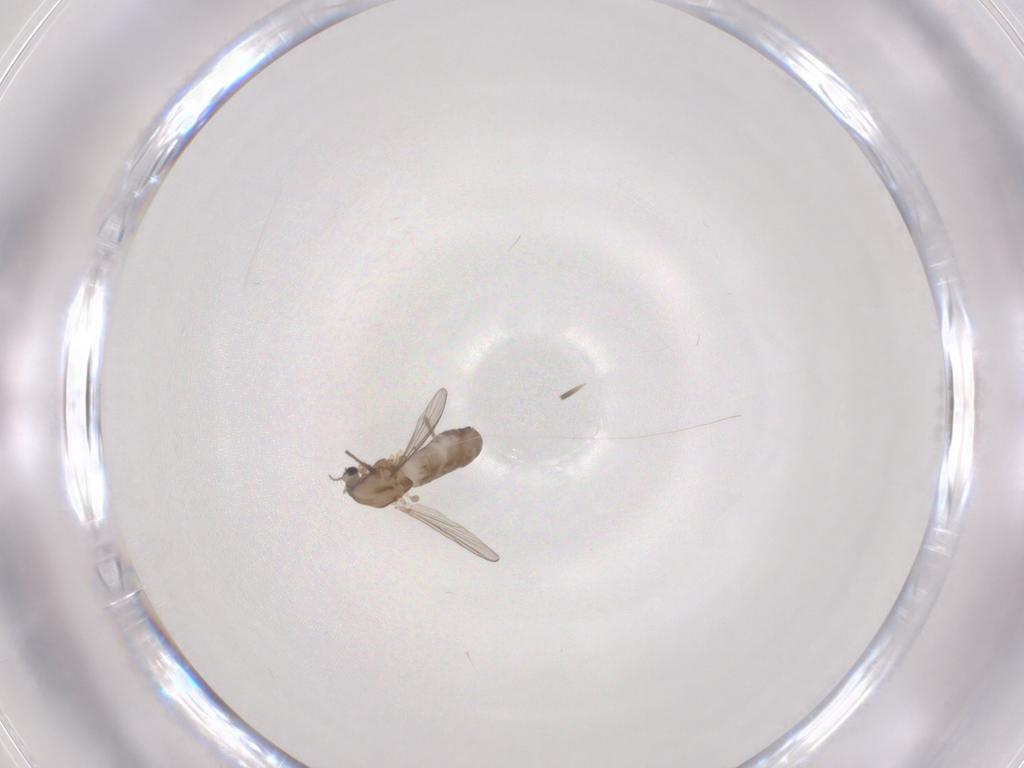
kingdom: Animalia
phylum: Arthropoda
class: Insecta
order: Diptera
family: Chironomidae
